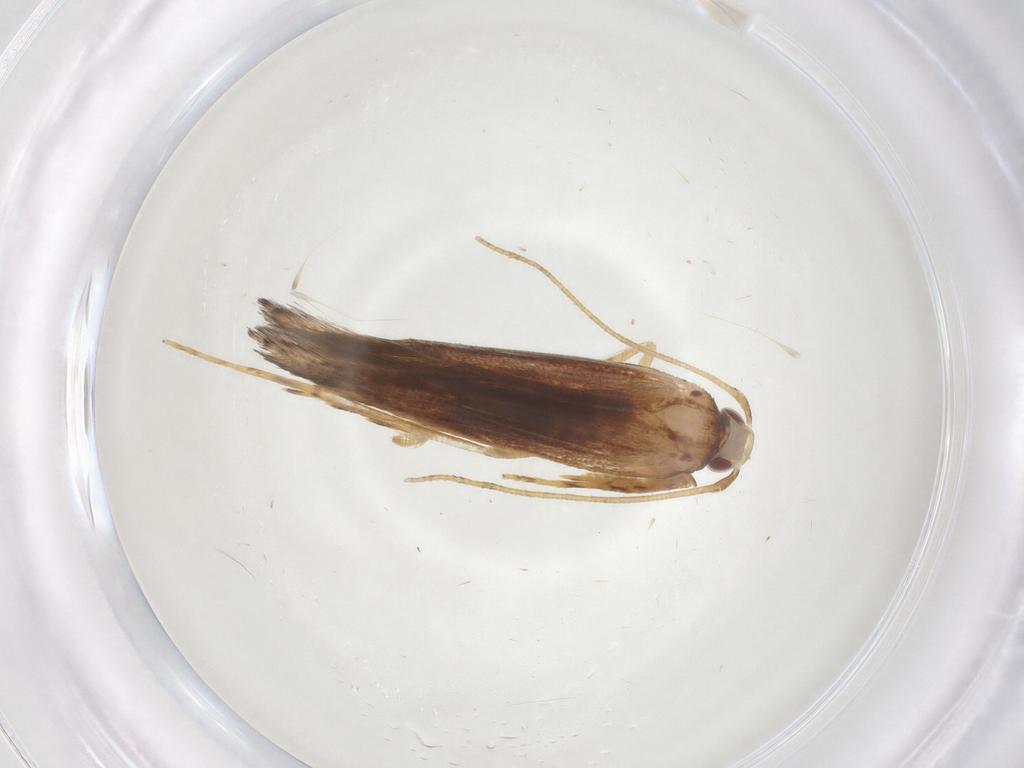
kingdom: Animalia
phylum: Arthropoda
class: Insecta
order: Lepidoptera
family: Cosmopterigidae
